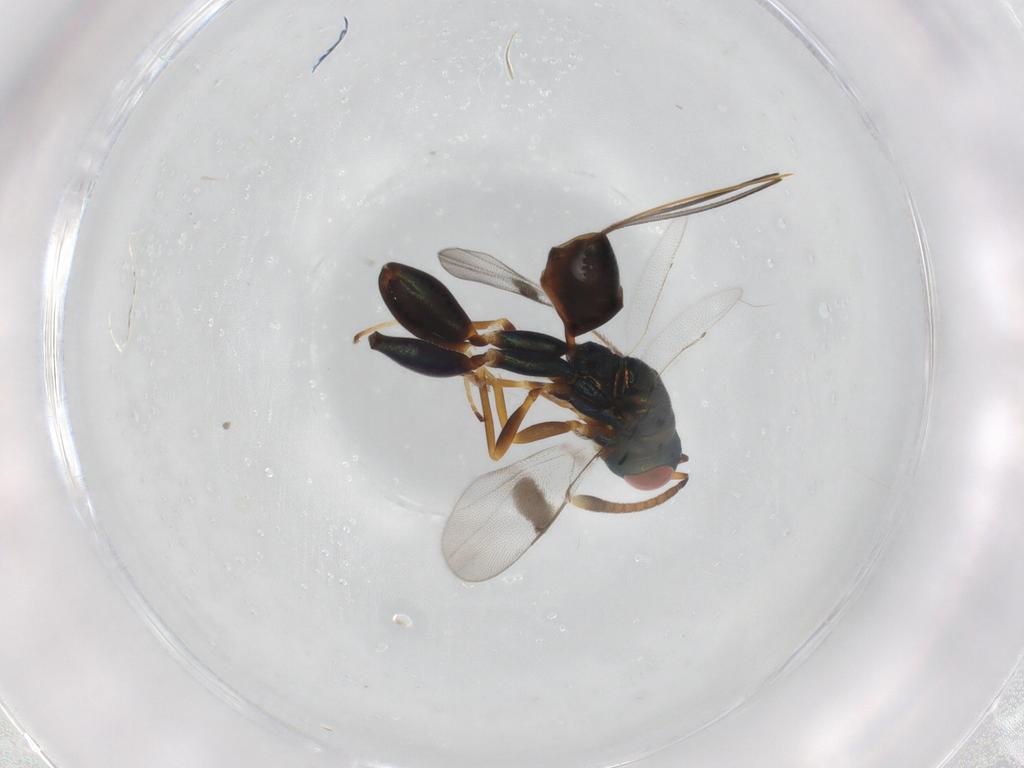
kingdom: Animalia
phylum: Arthropoda
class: Insecta
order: Hymenoptera
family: Torymidae
